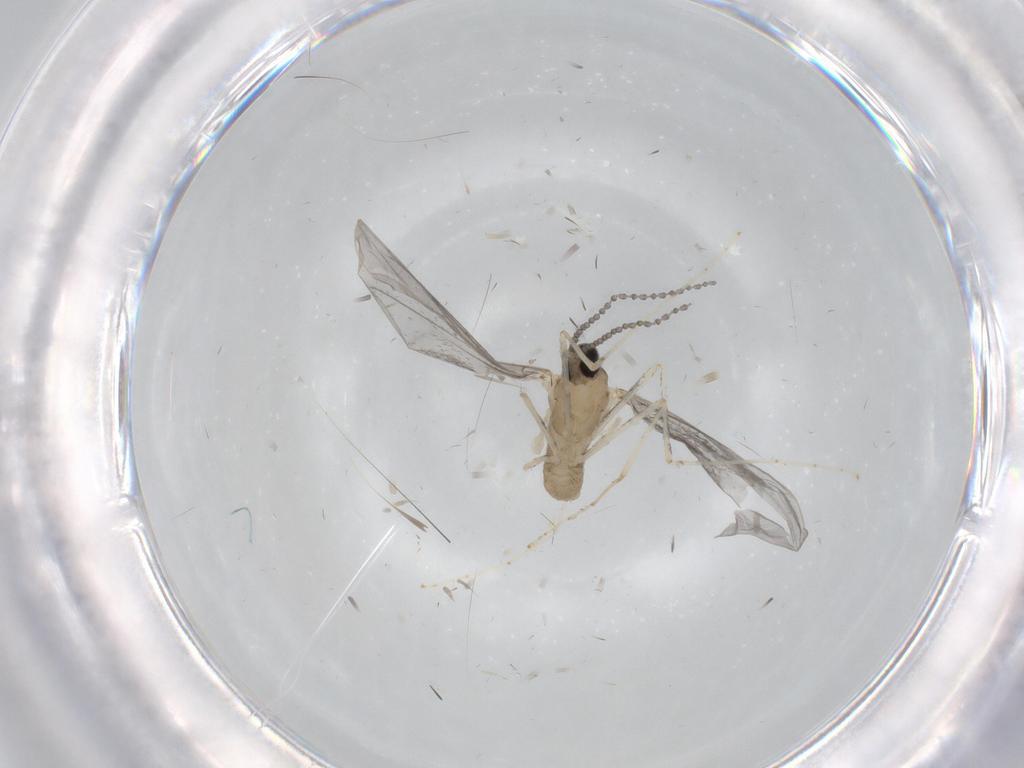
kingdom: Animalia
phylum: Arthropoda
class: Insecta
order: Diptera
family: Cecidomyiidae
